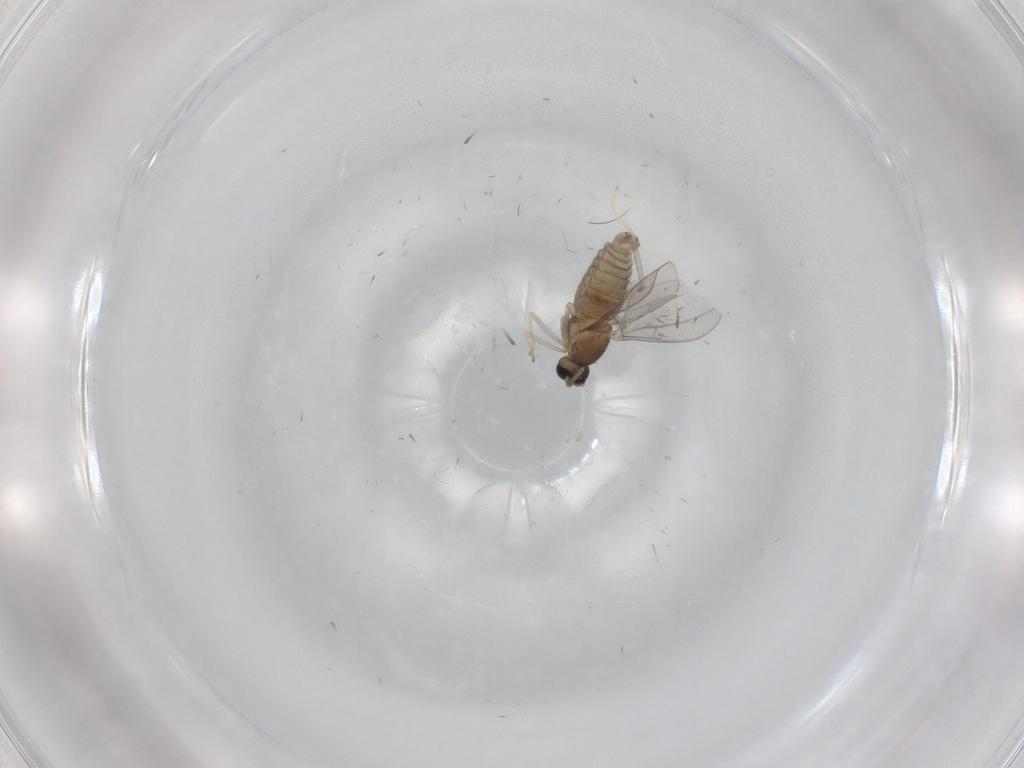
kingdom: Animalia
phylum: Arthropoda
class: Insecta
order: Diptera
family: Cecidomyiidae
